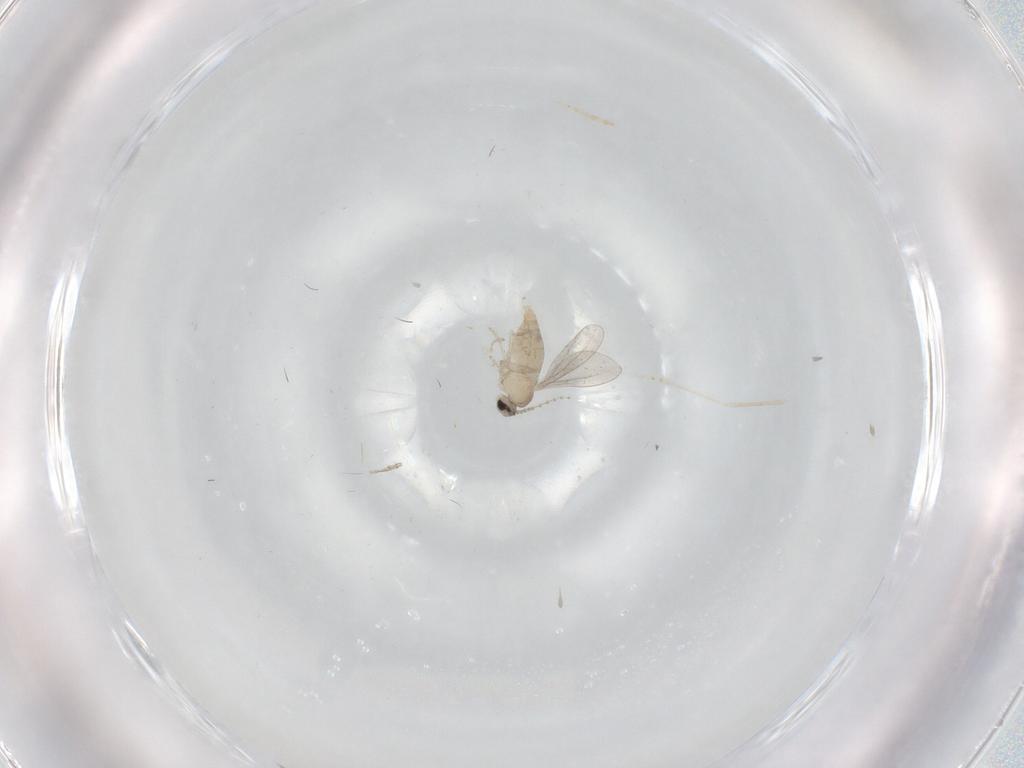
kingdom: Animalia
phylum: Arthropoda
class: Insecta
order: Diptera
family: Cecidomyiidae
